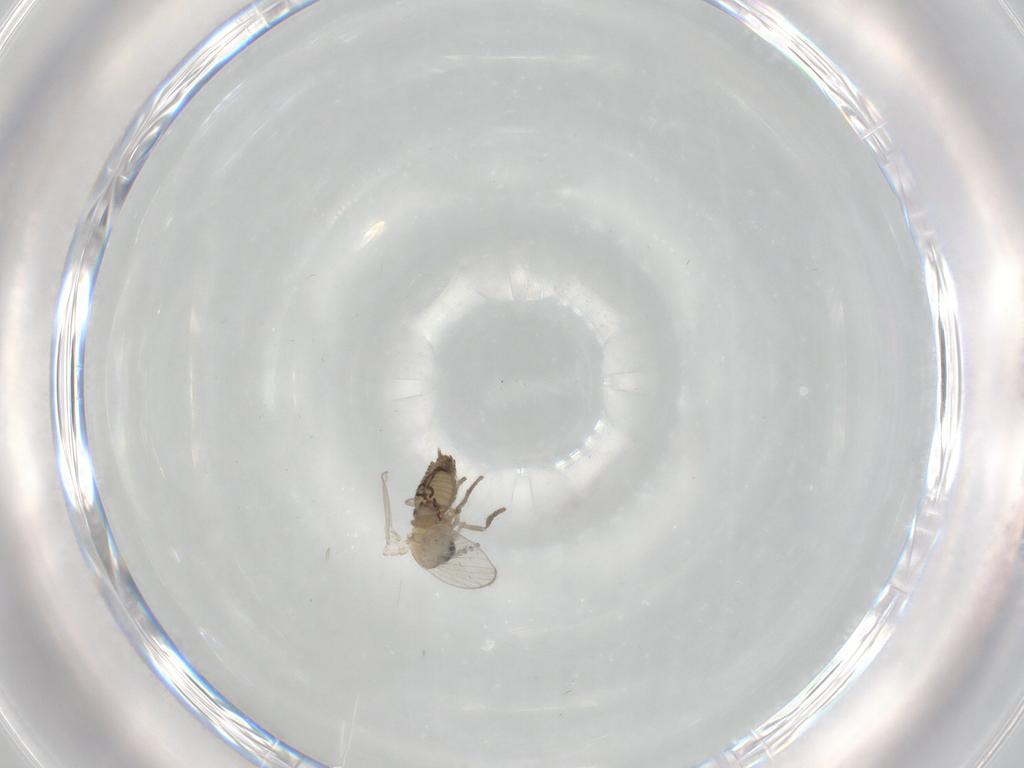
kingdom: Animalia
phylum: Arthropoda
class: Insecta
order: Diptera
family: Psychodidae
